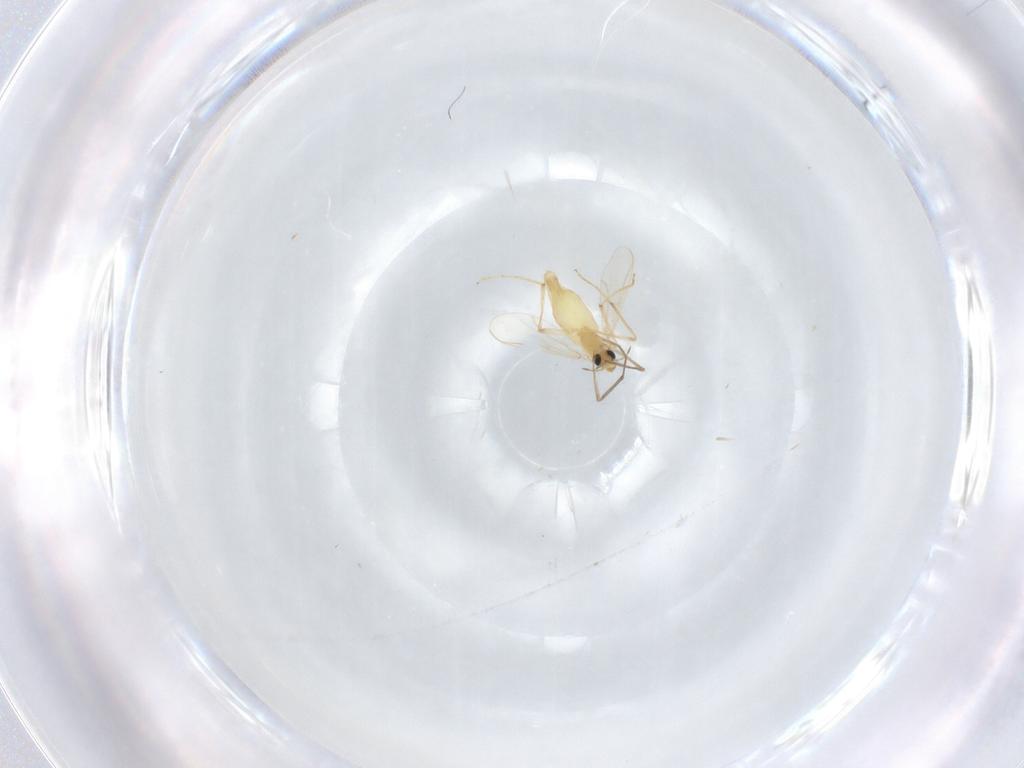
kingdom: Animalia
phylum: Arthropoda
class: Insecta
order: Diptera
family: Chironomidae
